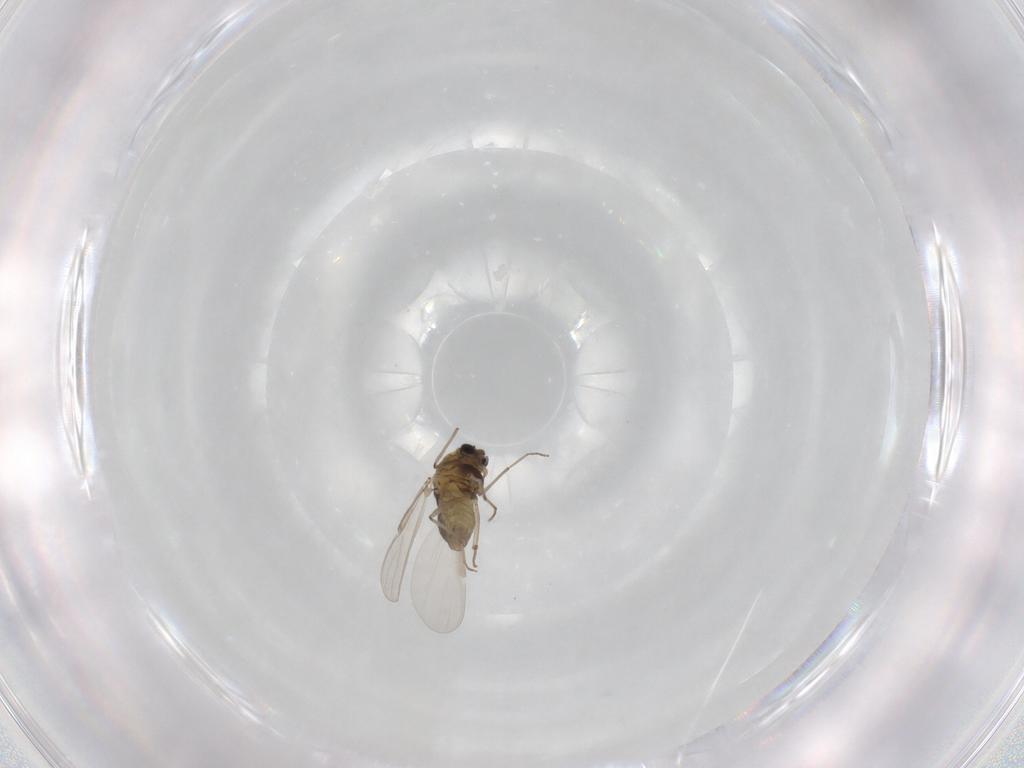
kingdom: Animalia
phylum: Arthropoda
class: Insecta
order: Diptera
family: Chironomidae
